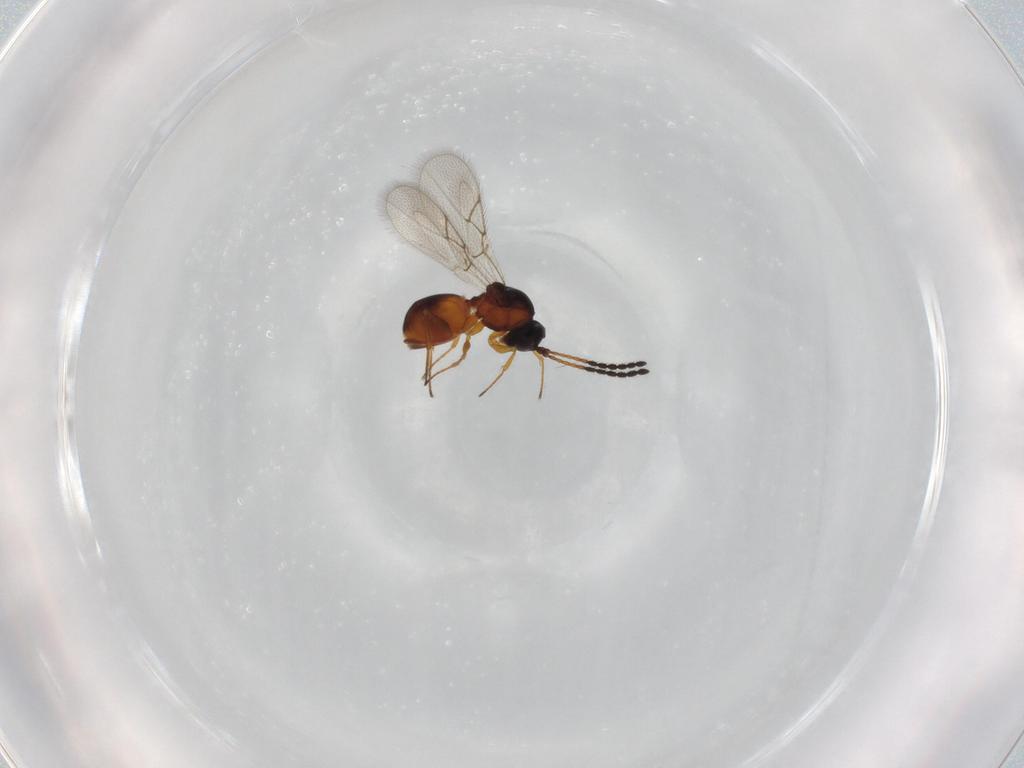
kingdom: Animalia
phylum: Arthropoda
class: Insecta
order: Hymenoptera
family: Figitidae
